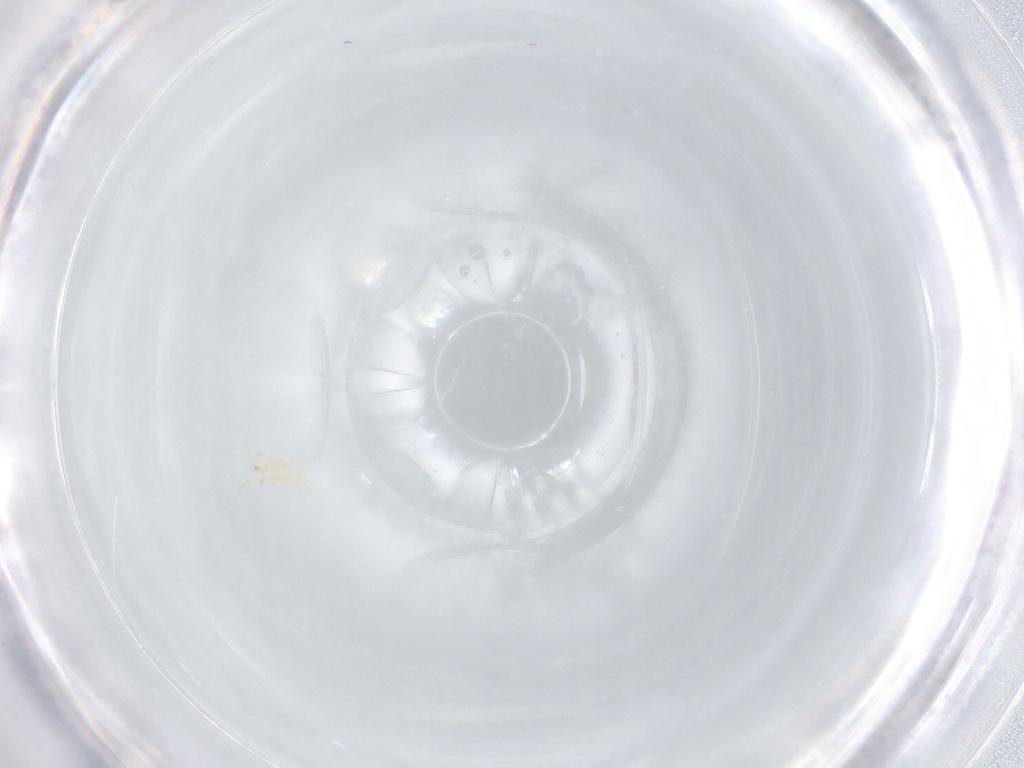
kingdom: Animalia
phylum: Arthropoda
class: Arachnida
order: Mesostigmata
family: Phytoseiidae
